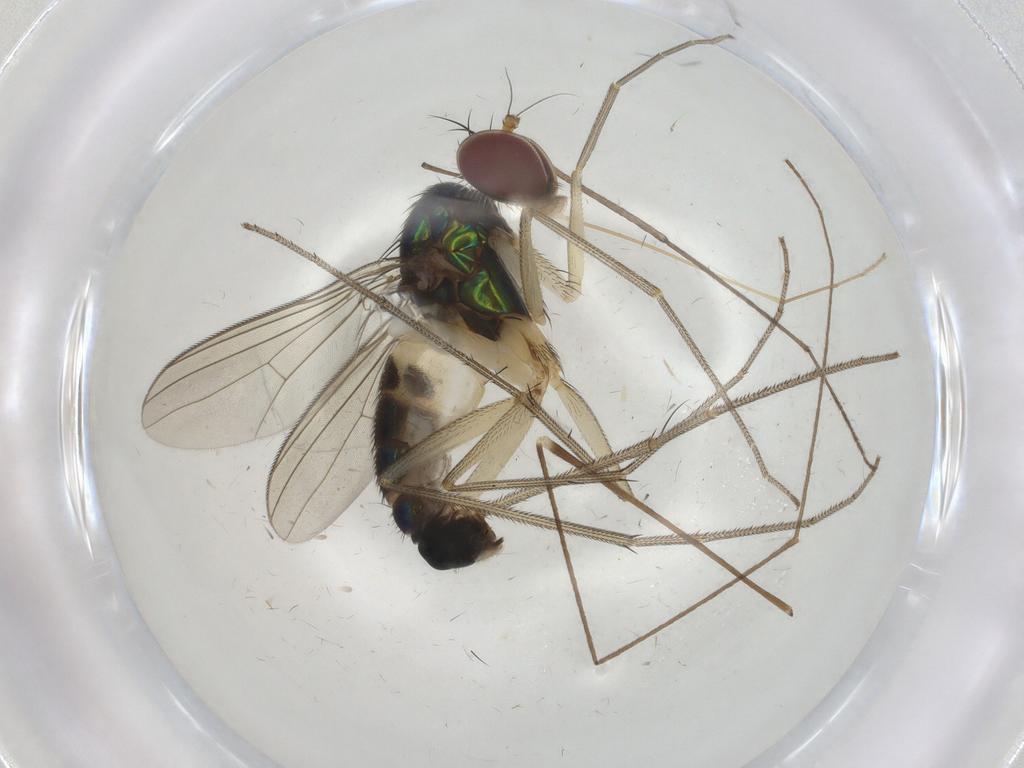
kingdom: Animalia
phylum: Arthropoda
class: Insecta
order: Diptera
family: Dolichopodidae
